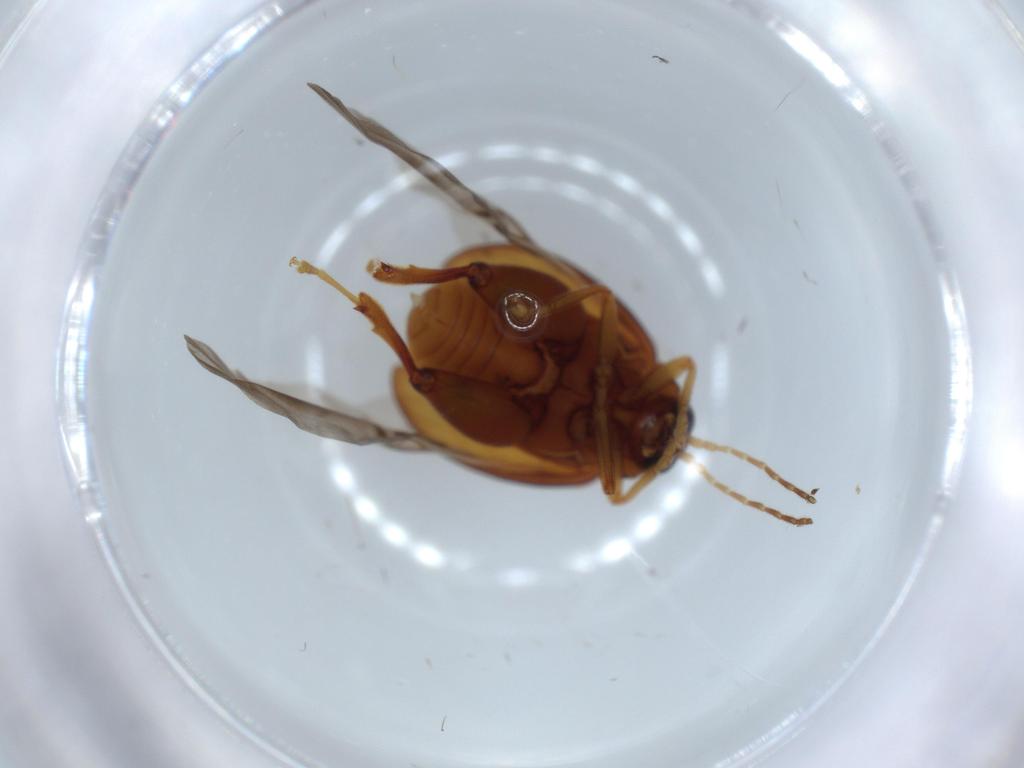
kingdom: Animalia
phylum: Arthropoda
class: Insecta
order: Coleoptera
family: Chrysomelidae
